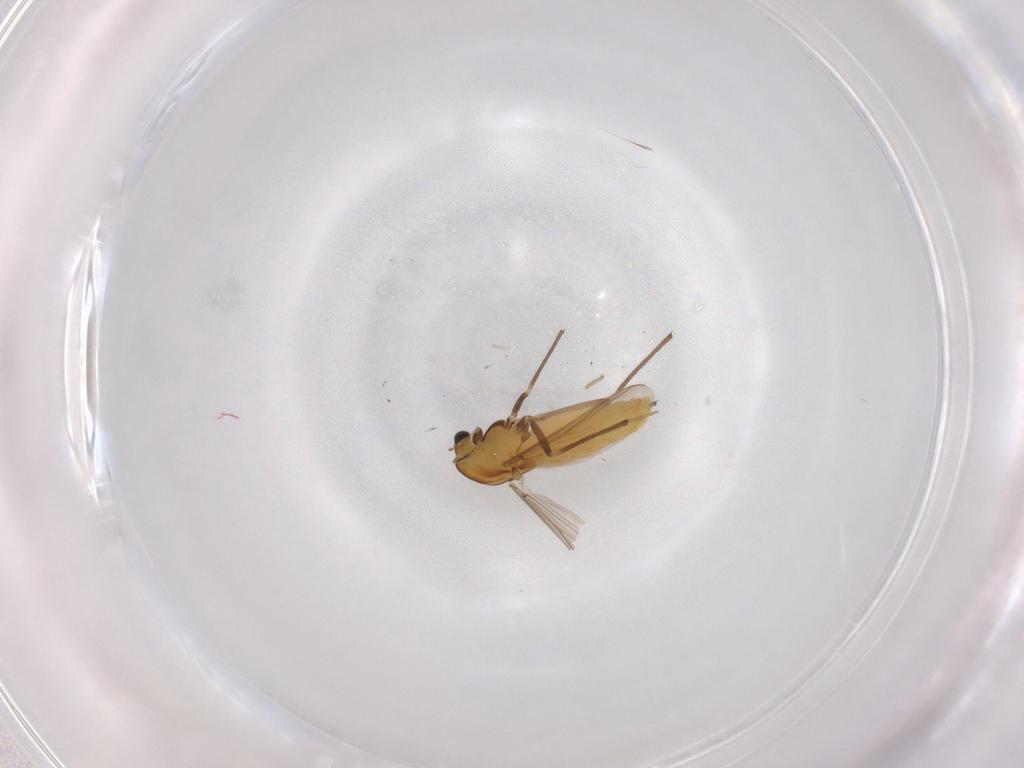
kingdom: Animalia
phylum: Arthropoda
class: Insecta
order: Diptera
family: Chironomidae
